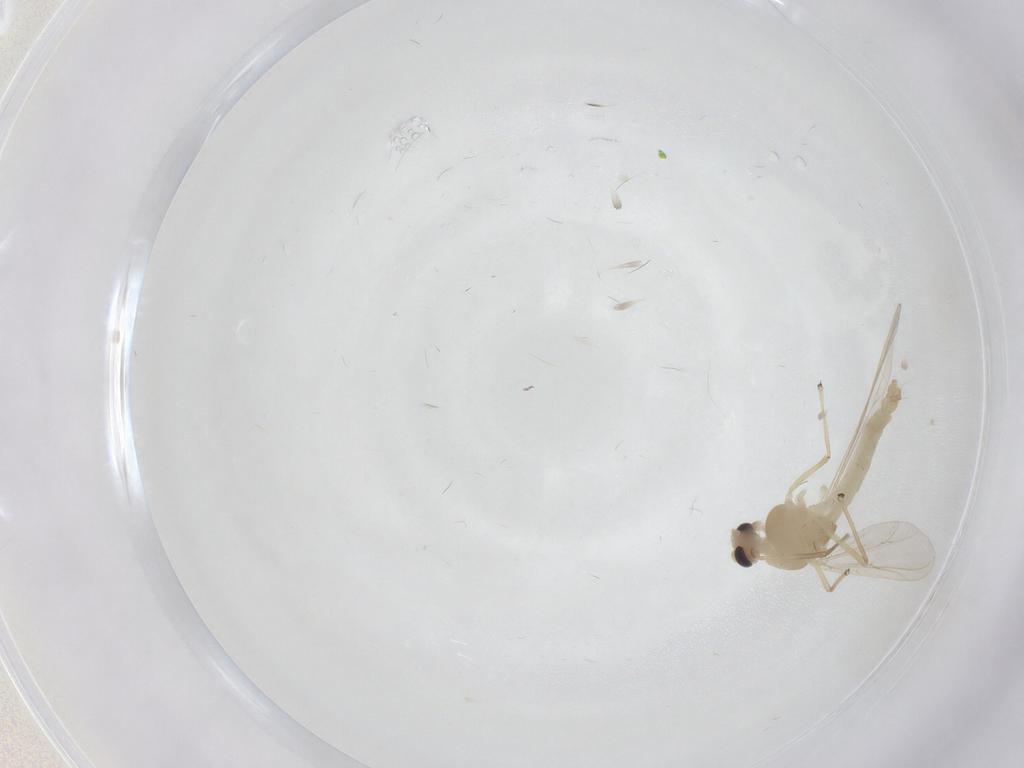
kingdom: Animalia
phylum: Arthropoda
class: Insecta
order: Diptera
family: Ceratopogonidae
